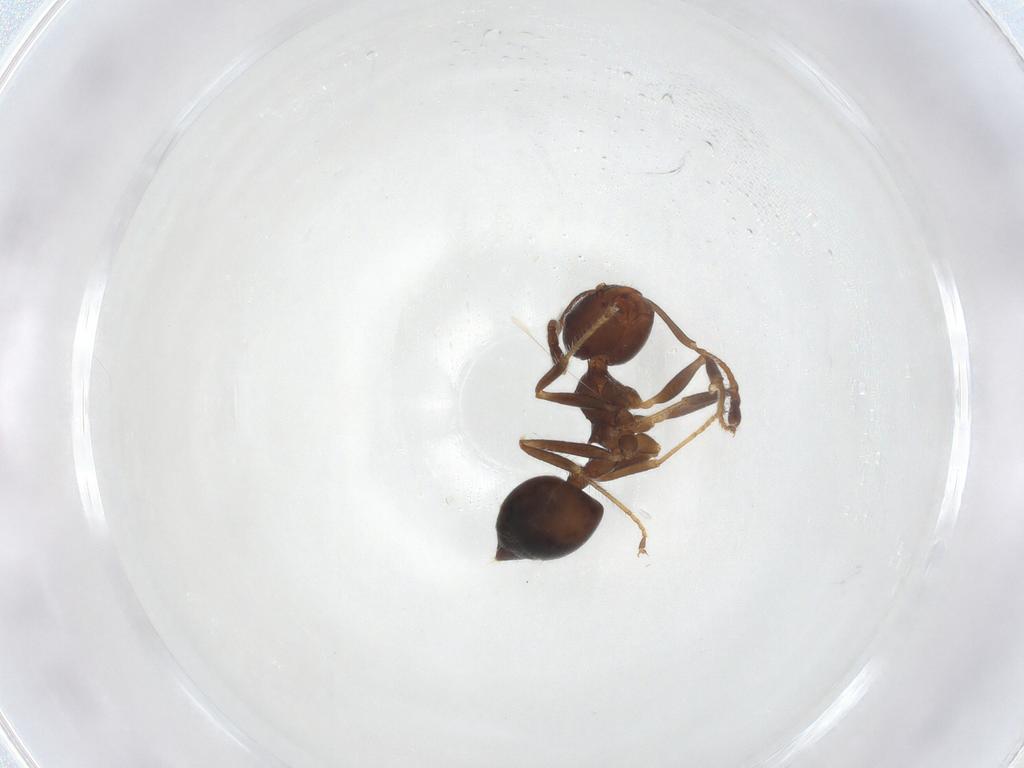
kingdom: Animalia
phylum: Arthropoda
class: Insecta
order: Hymenoptera
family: Formicidae
